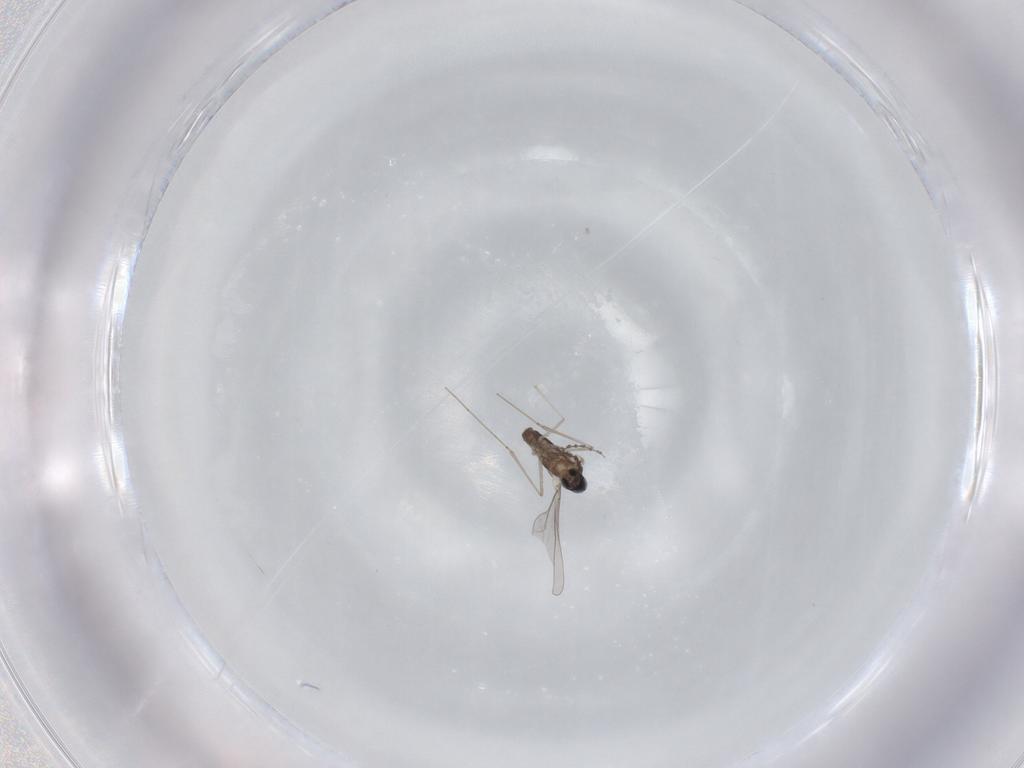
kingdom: Animalia
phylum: Arthropoda
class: Insecta
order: Diptera
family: Cecidomyiidae
